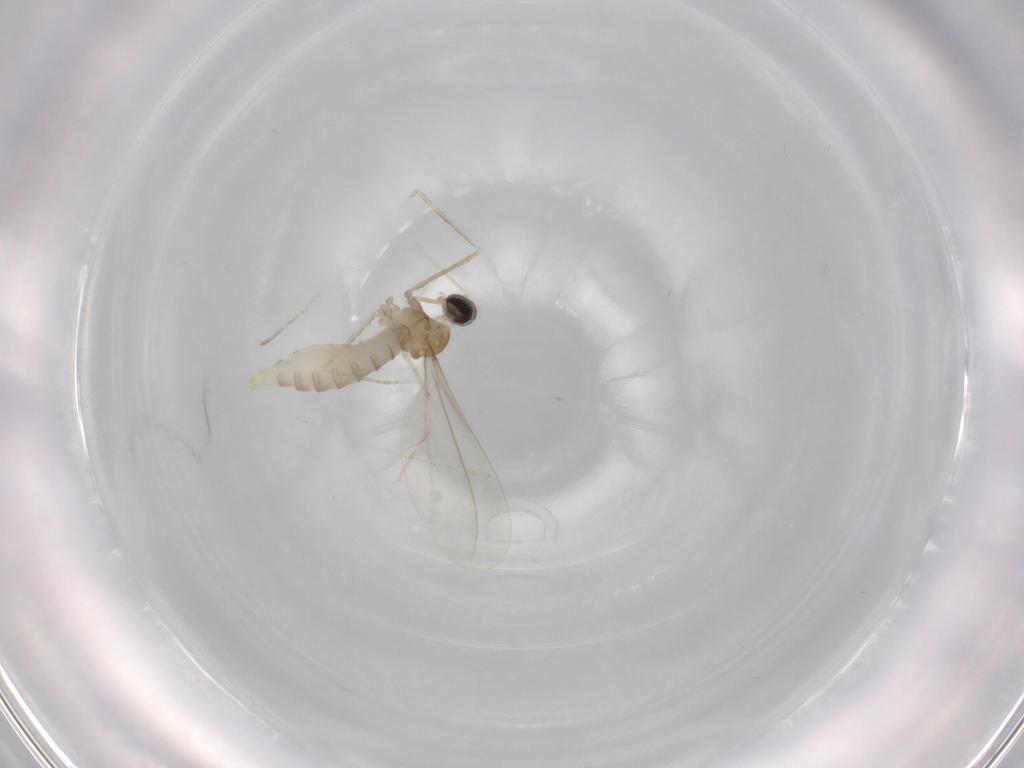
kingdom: Animalia
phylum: Arthropoda
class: Insecta
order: Diptera
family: Cecidomyiidae
